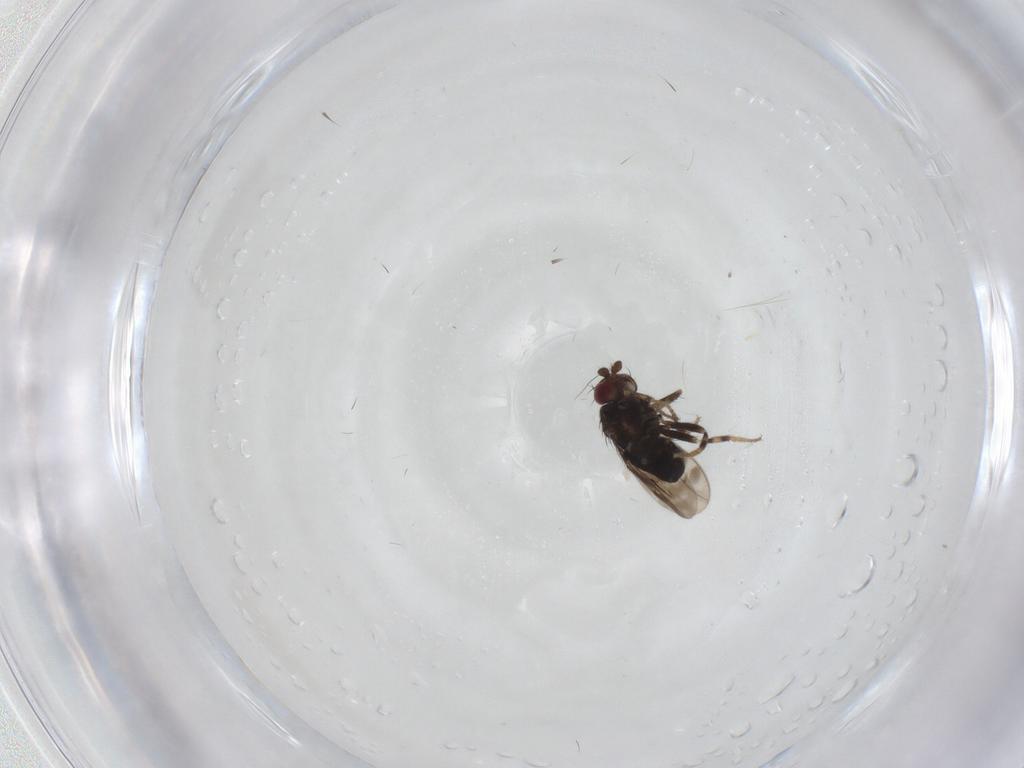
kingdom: Animalia
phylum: Arthropoda
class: Insecta
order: Diptera
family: Sphaeroceridae
